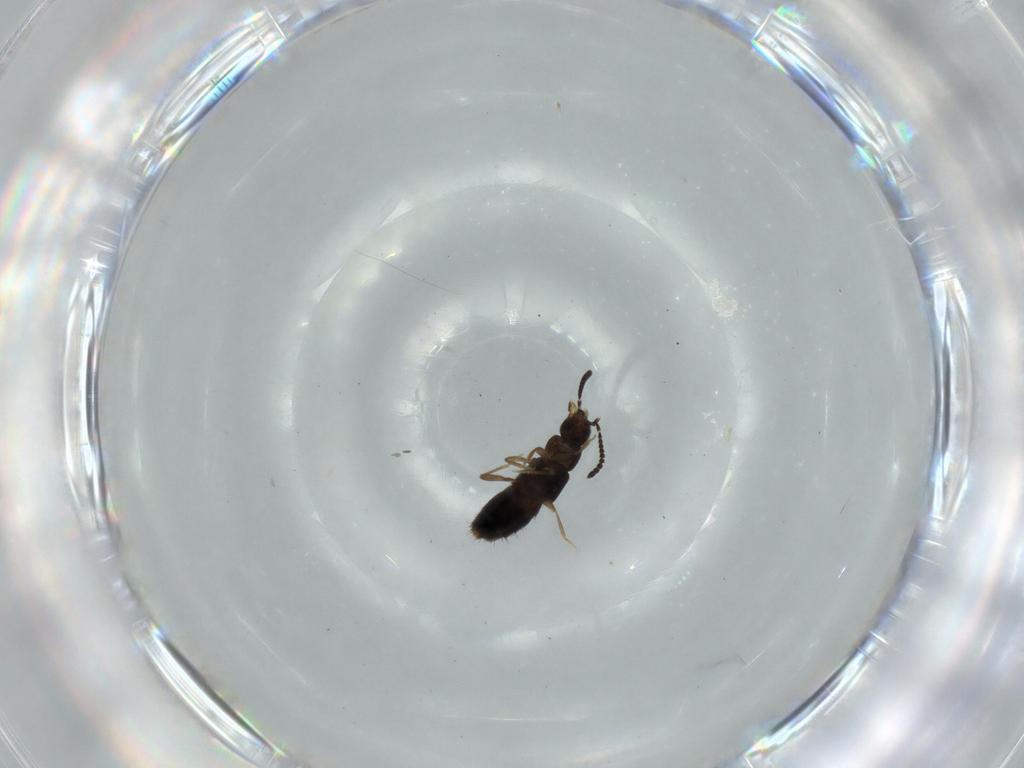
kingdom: Animalia
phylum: Arthropoda
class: Insecta
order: Coleoptera
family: Staphylinidae
